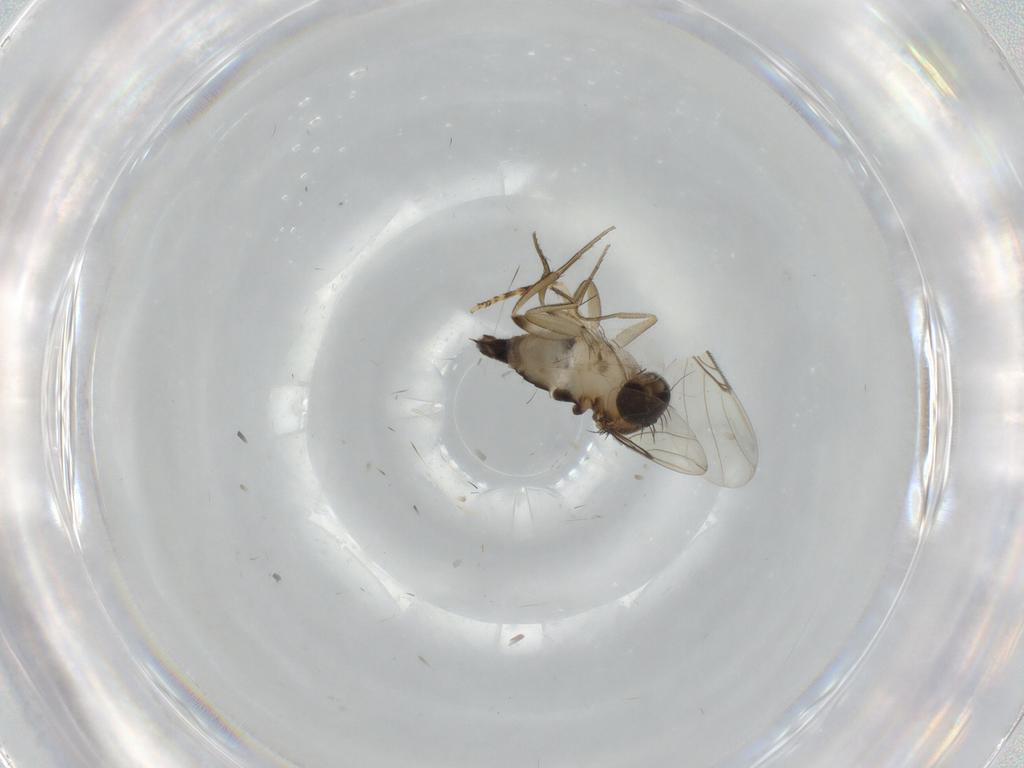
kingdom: Animalia
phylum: Arthropoda
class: Insecta
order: Diptera
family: Phoridae
